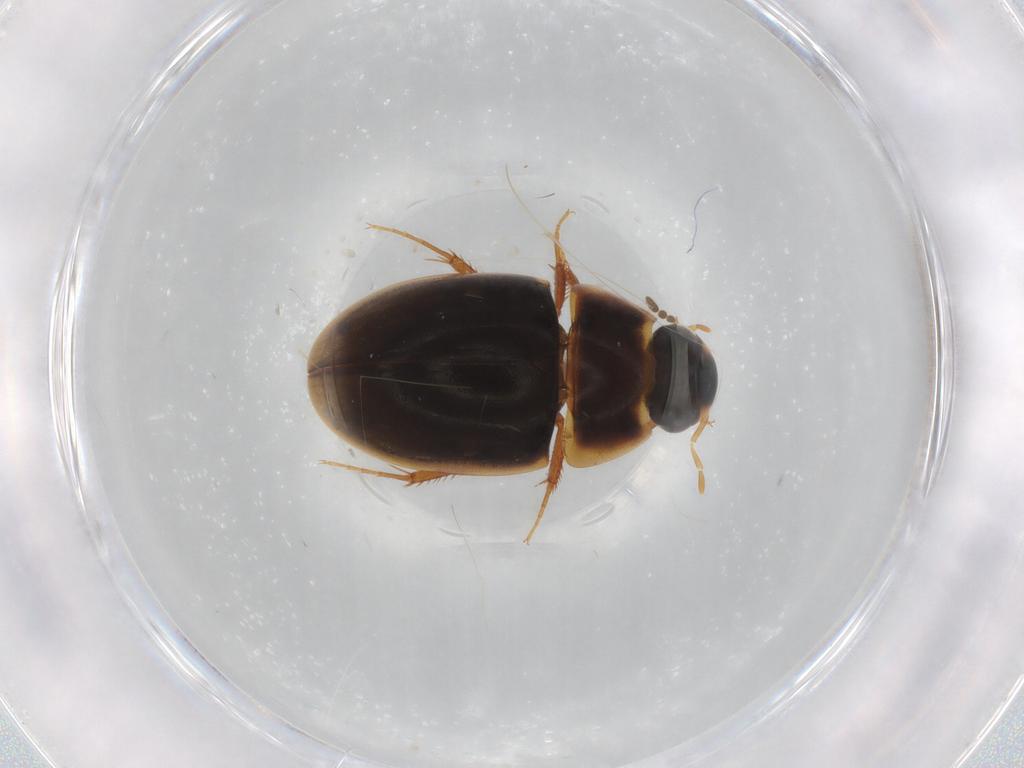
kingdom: Animalia
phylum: Arthropoda
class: Insecta
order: Coleoptera
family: Hydrophilidae
